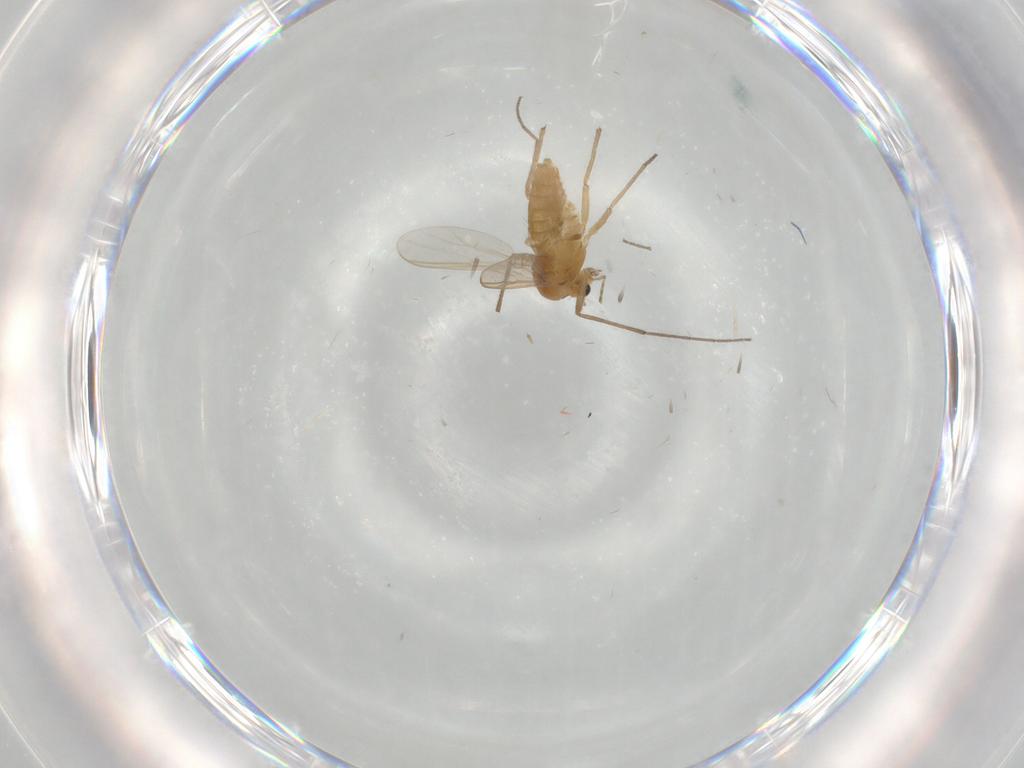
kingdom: Animalia
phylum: Arthropoda
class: Insecta
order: Diptera
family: Chironomidae
